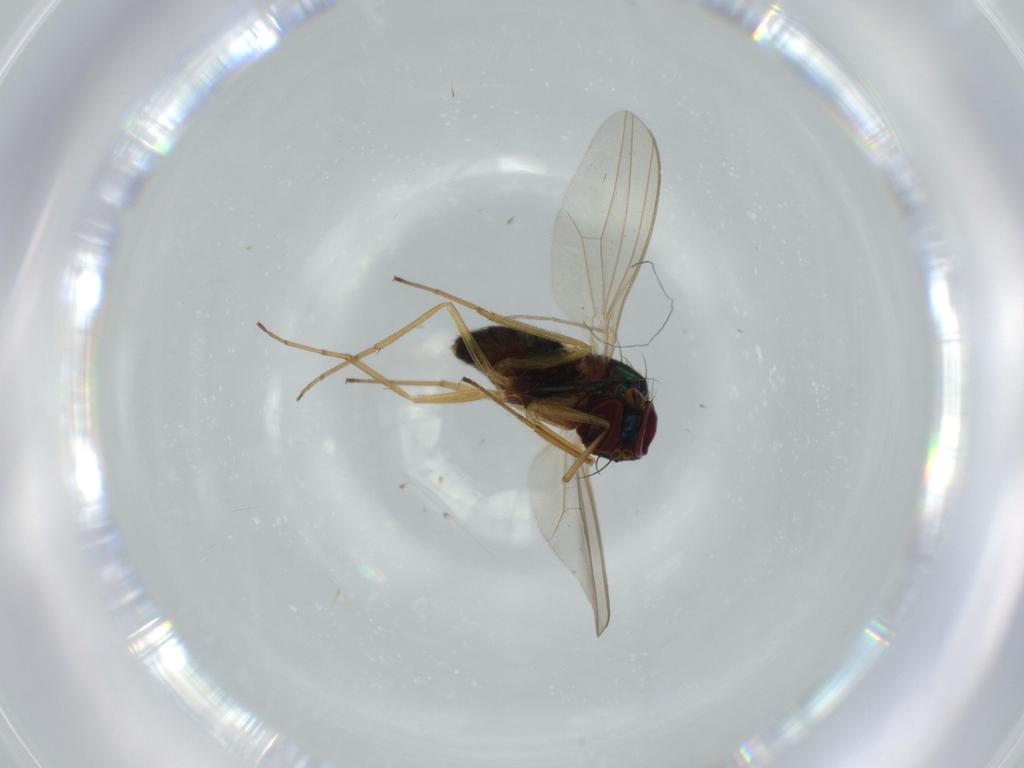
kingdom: Animalia
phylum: Arthropoda
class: Insecta
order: Diptera
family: Dolichopodidae
